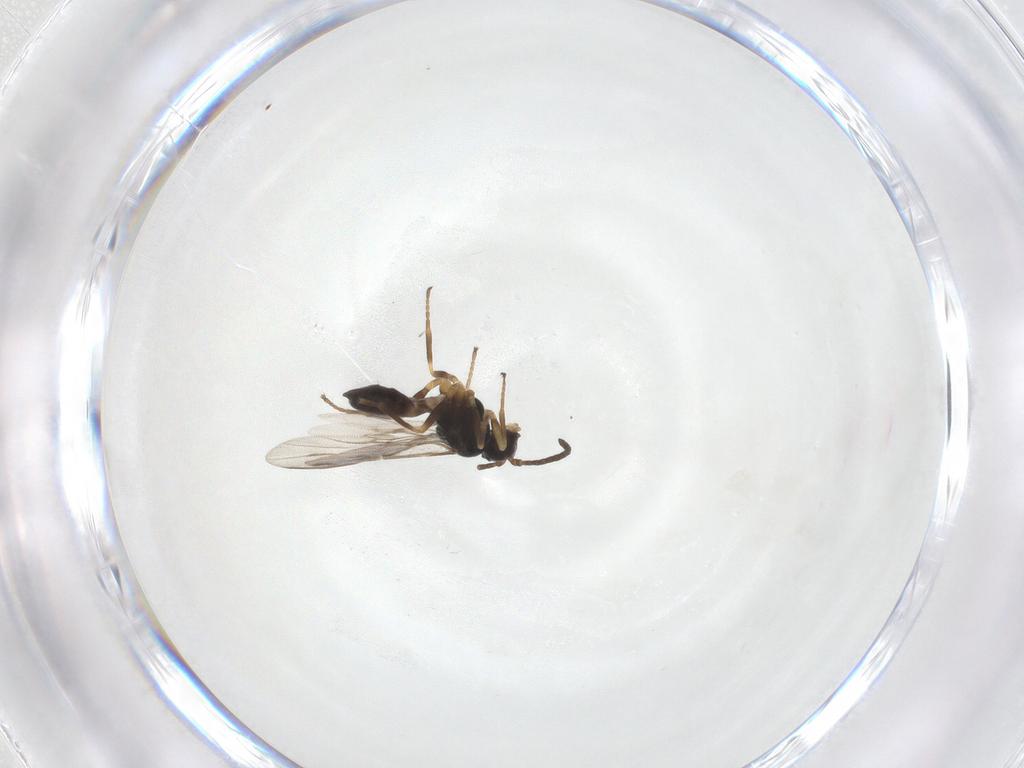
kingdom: Animalia
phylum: Arthropoda
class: Insecta
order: Hymenoptera
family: Braconidae
